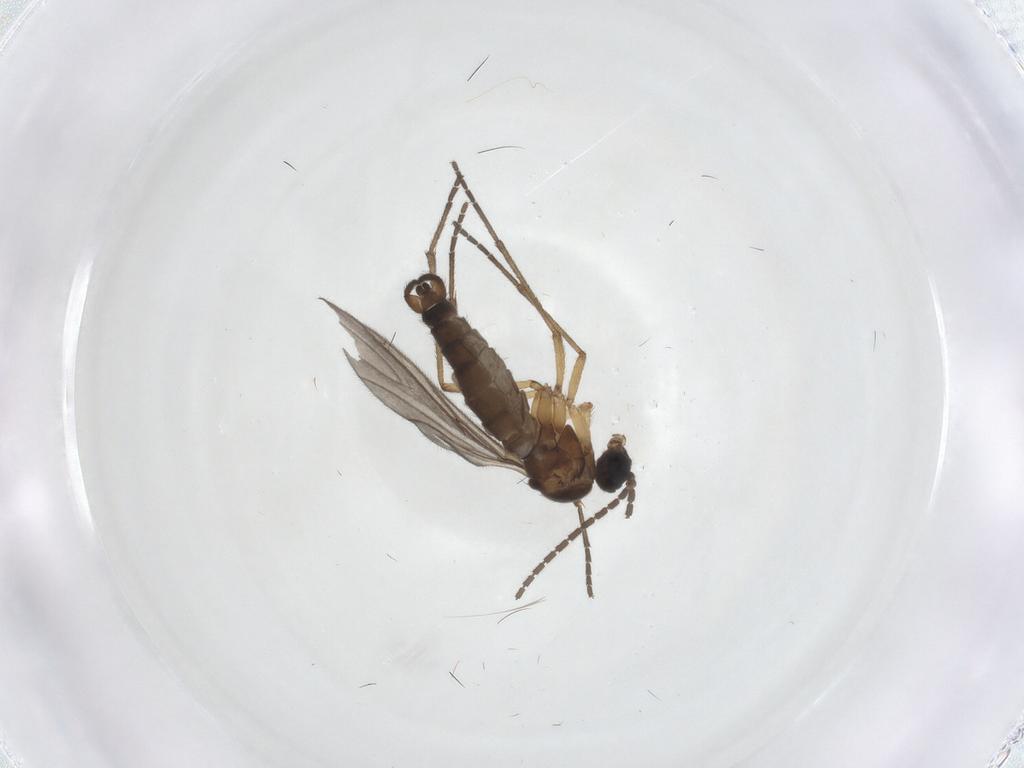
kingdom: Animalia
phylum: Arthropoda
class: Insecta
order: Diptera
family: Sciaridae
